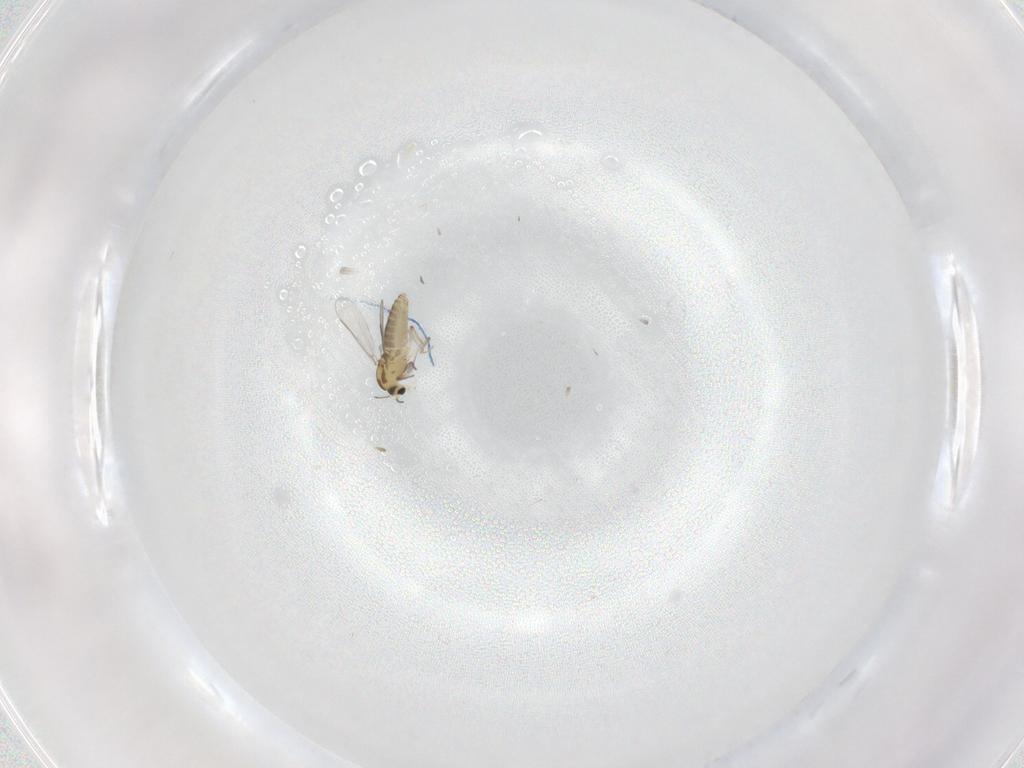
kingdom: Animalia
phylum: Arthropoda
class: Insecta
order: Diptera
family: Chironomidae
